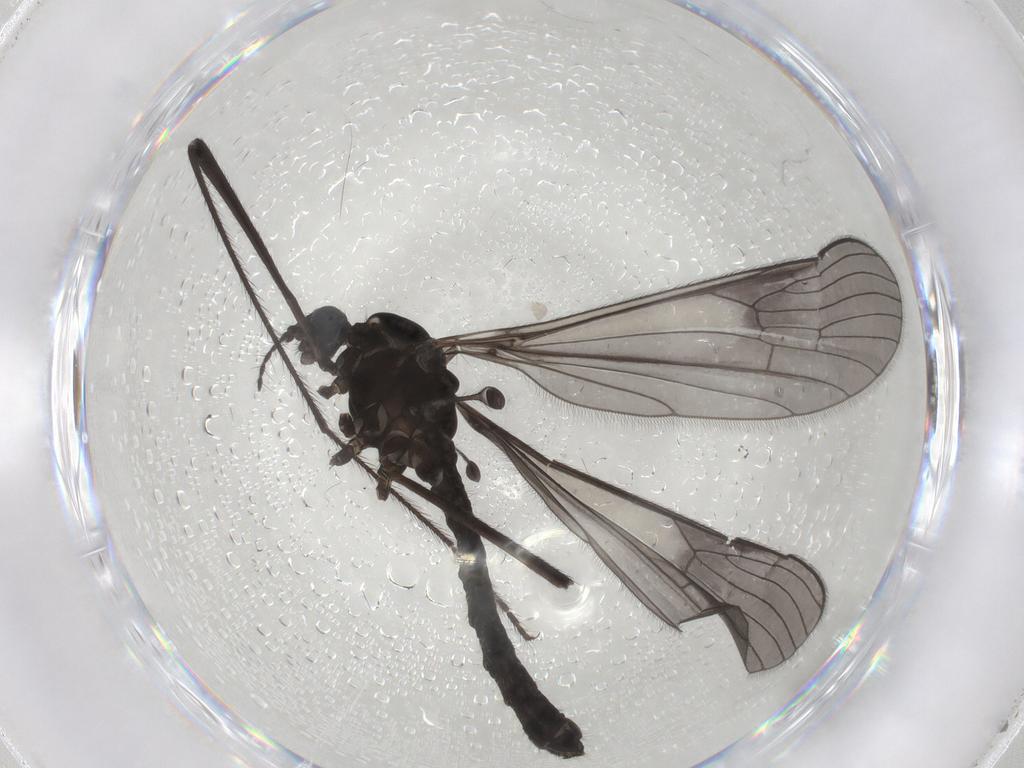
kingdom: Animalia
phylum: Arthropoda
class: Insecta
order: Diptera
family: Limoniidae
